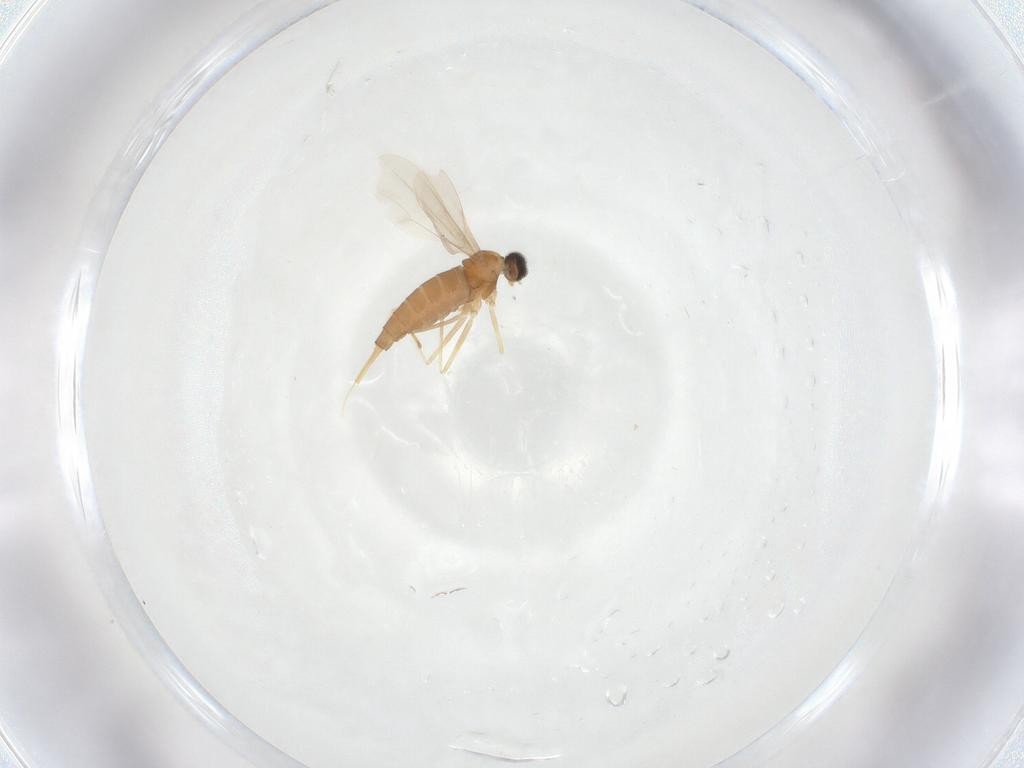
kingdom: Animalia
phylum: Arthropoda
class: Insecta
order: Diptera
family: Cecidomyiidae
